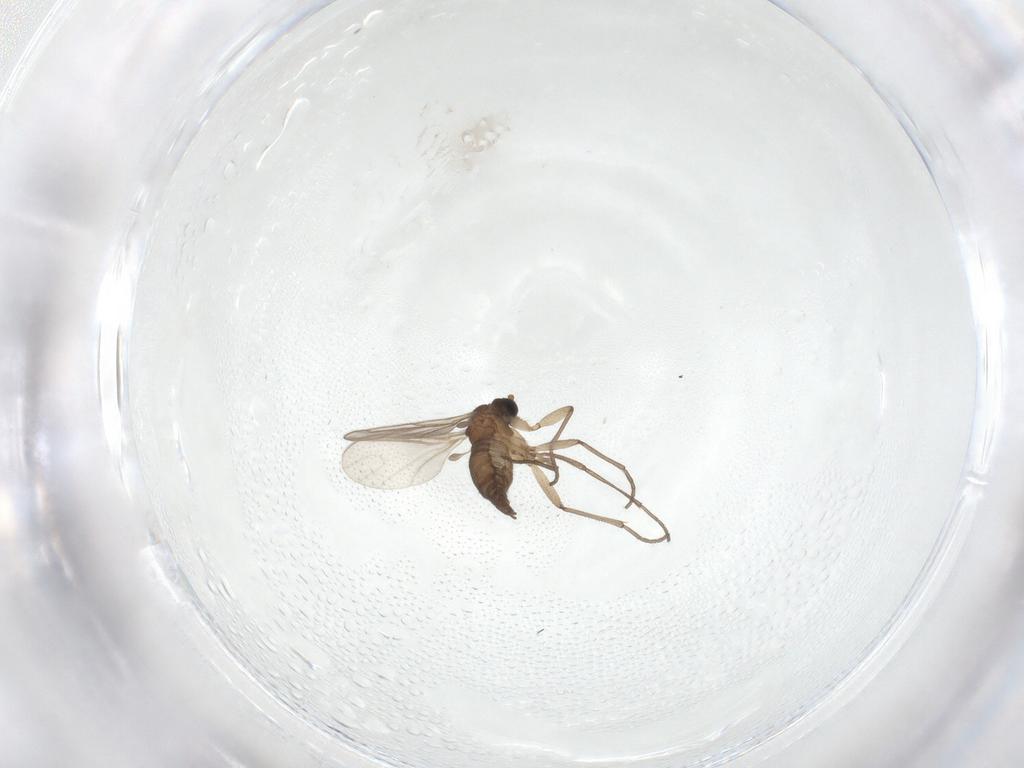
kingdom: Animalia
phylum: Arthropoda
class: Insecta
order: Diptera
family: Sciaridae
